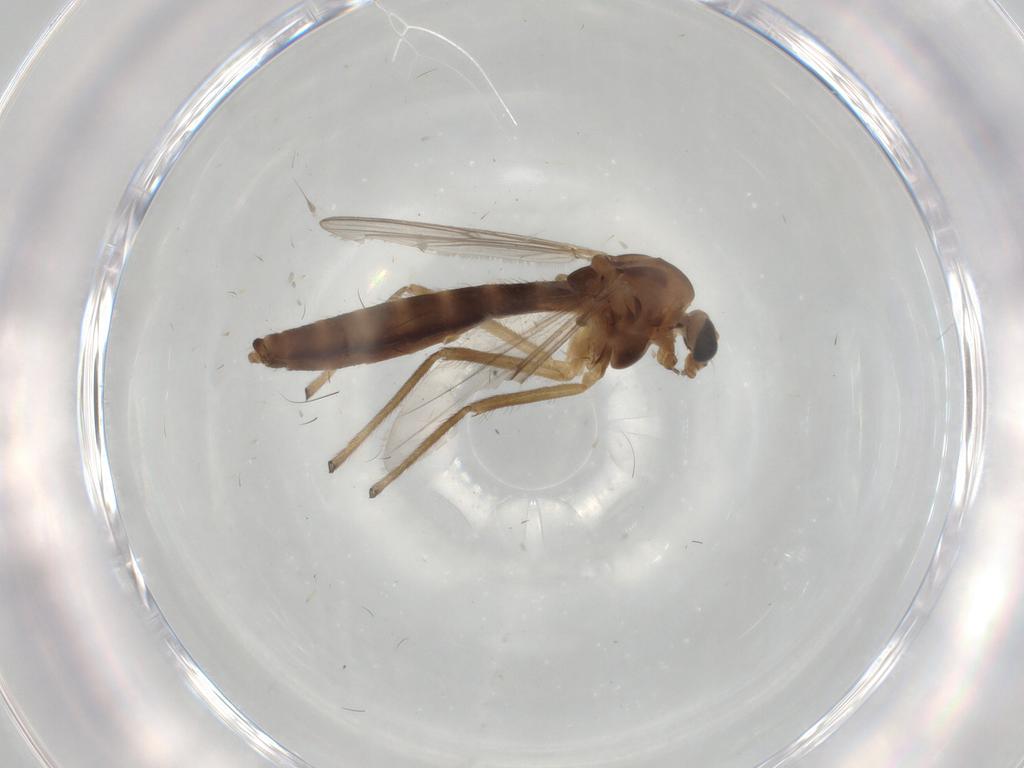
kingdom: Animalia
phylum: Arthropoda
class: Insecta
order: Diptera
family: Chironomidae
